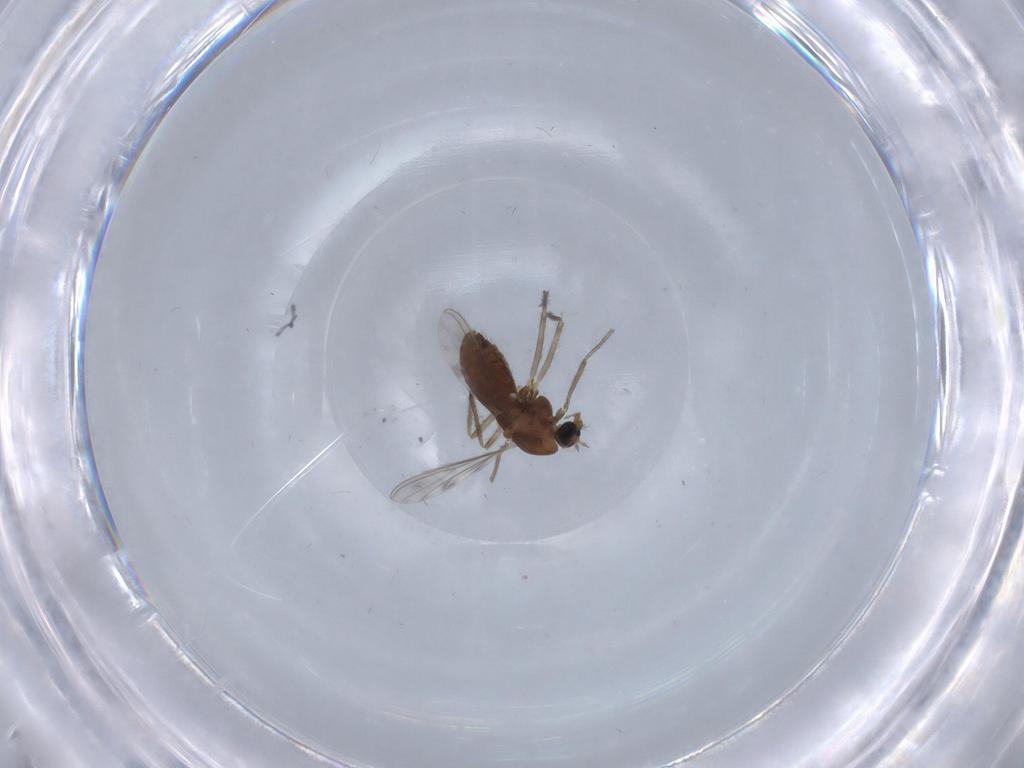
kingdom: Animalia
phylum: Arthropoda
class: Insecta
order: Diptera
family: Chironomidae
